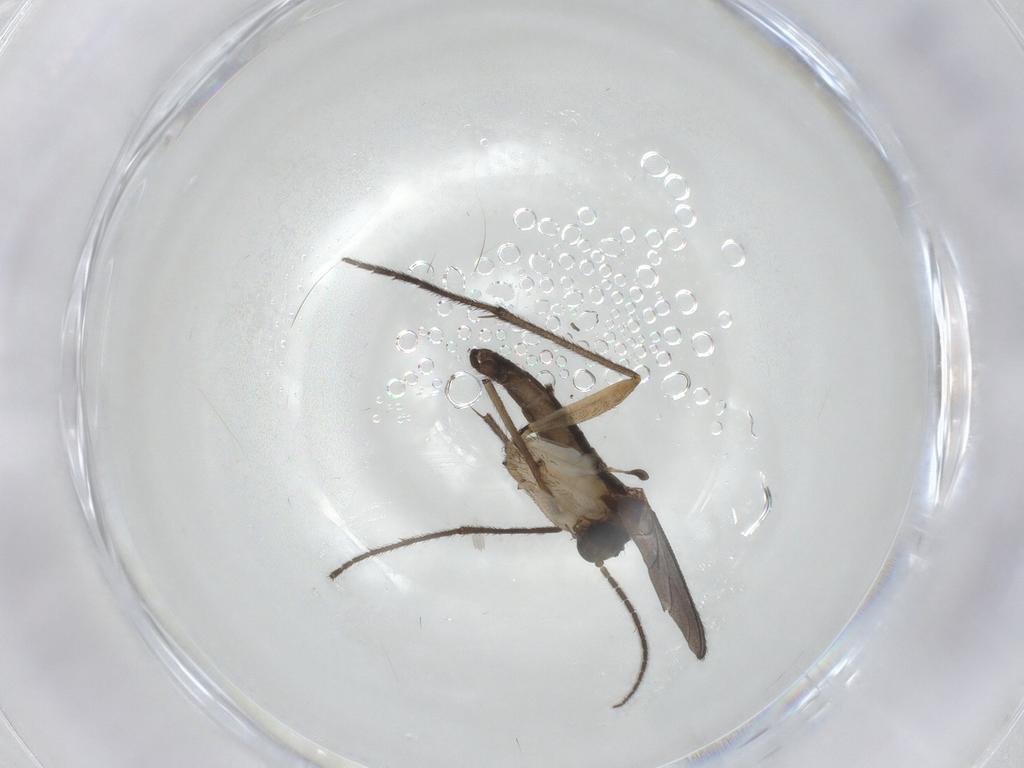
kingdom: Animalia
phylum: Arthropoda
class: Insecta
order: Diptera
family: Sciaridae
